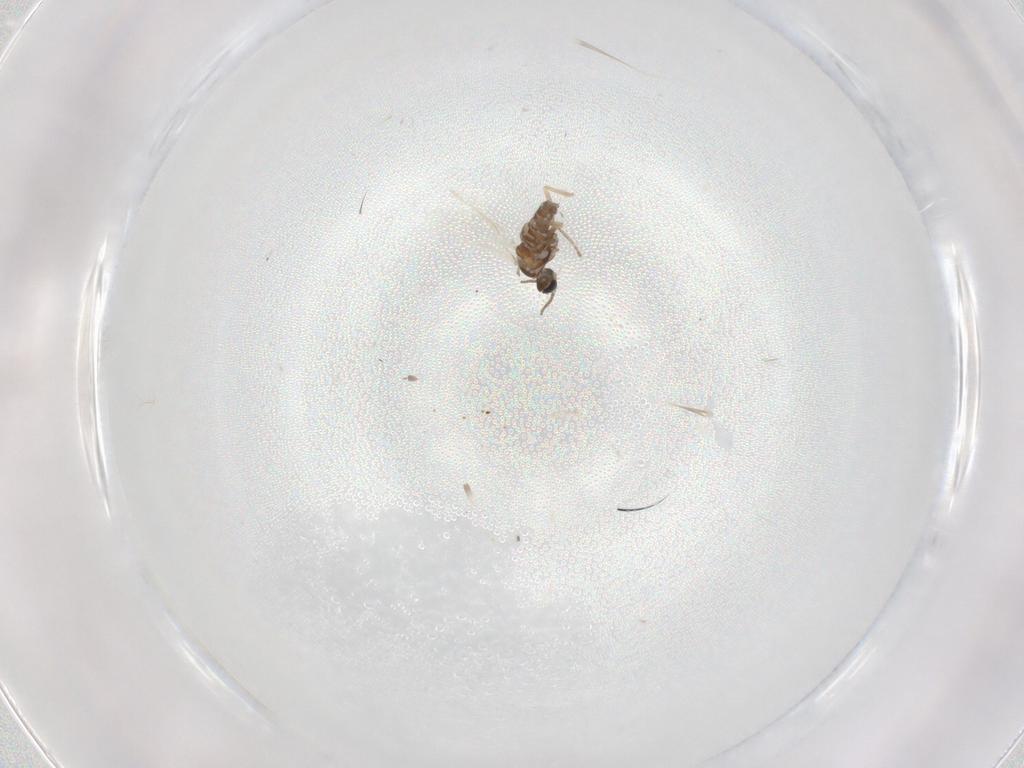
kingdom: Animalia
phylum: Arthropoda
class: Insecta
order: Diptera
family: Cecidomyiidae
